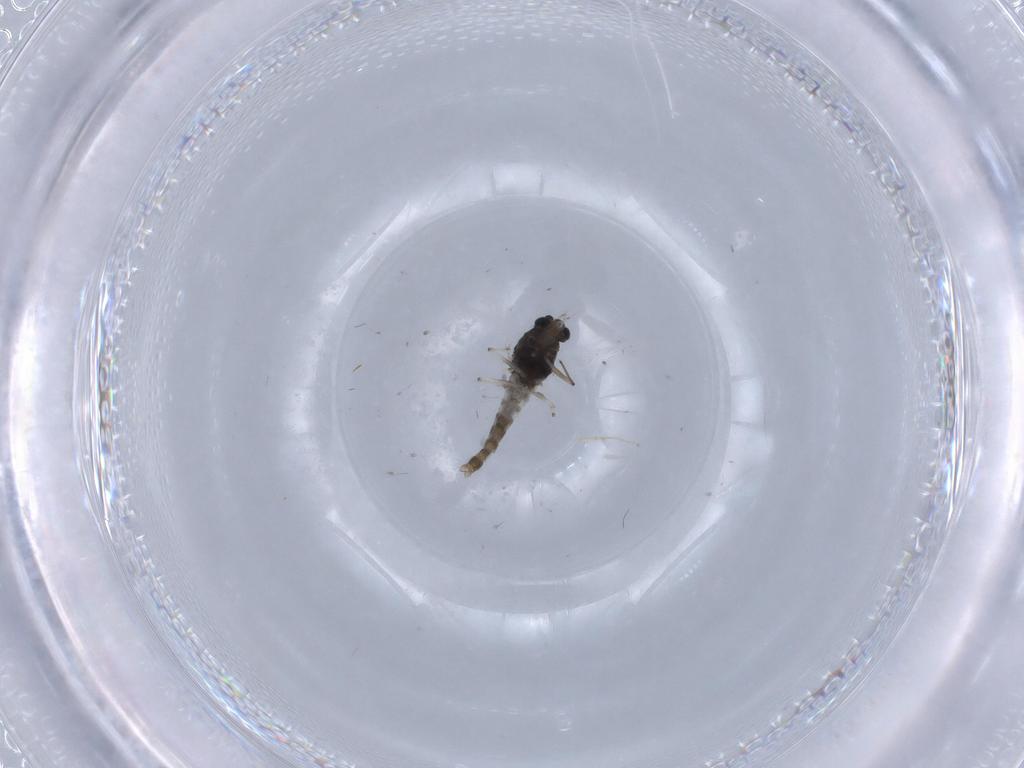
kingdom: Animalia
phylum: Arthropoda
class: Insecta
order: Diptera
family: Chironomidae
